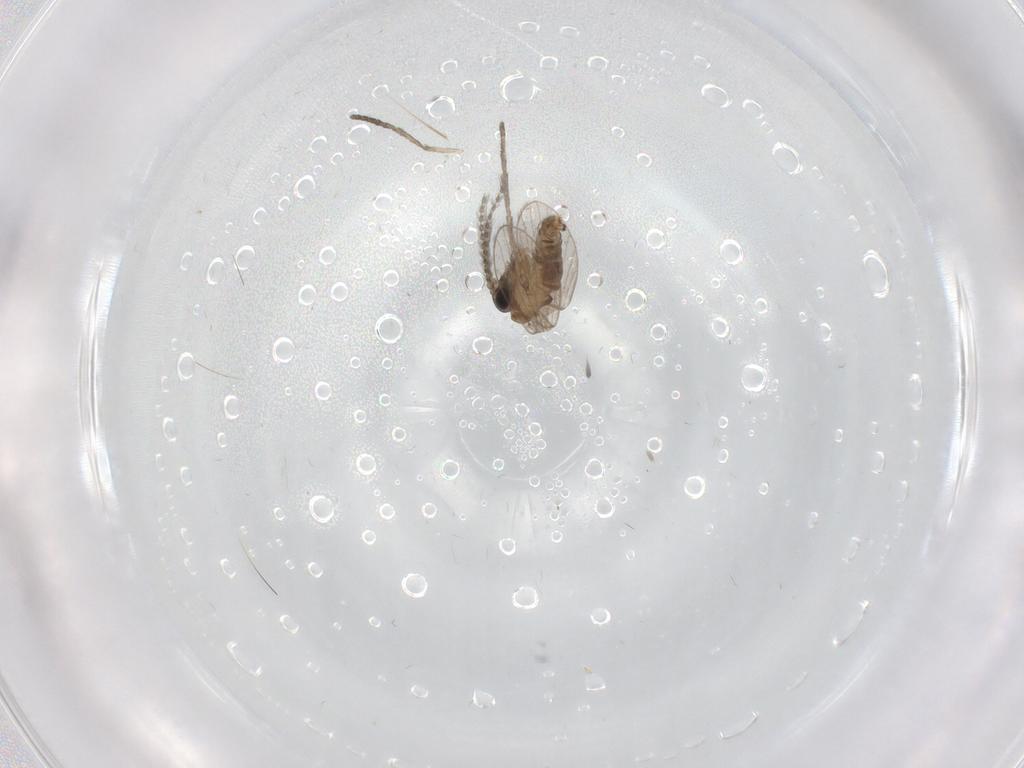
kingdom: Animalia
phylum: Arthropoda
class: Insecta
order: Diptera
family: Psychodidae
